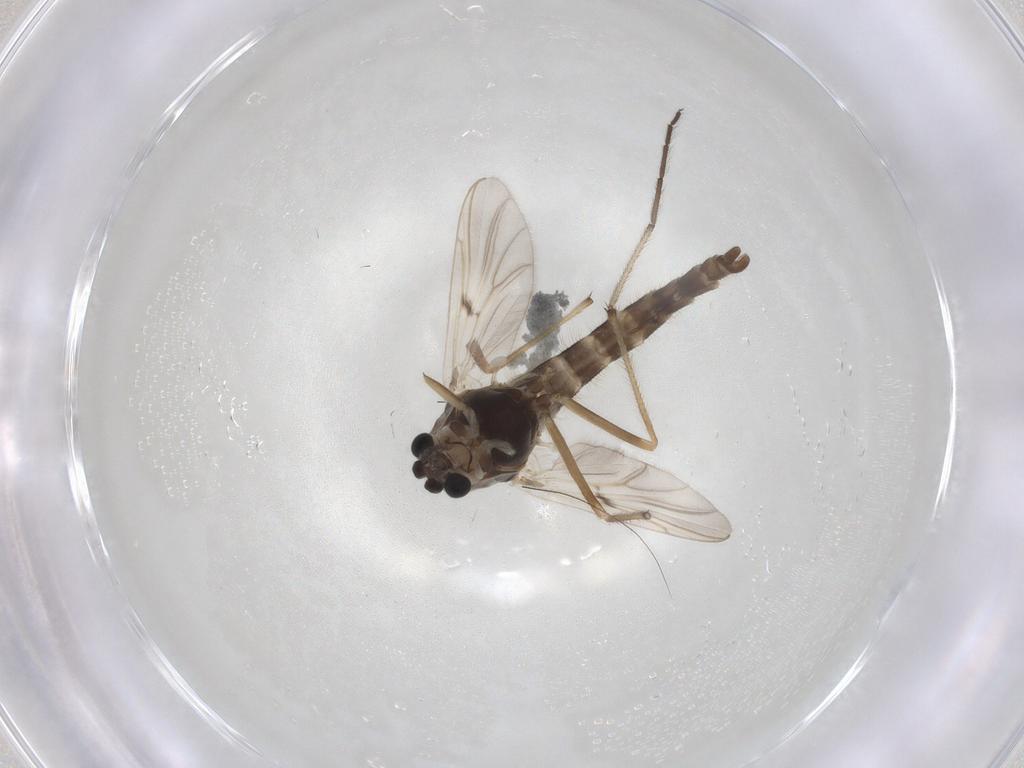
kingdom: Animalia
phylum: Arthropoda
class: Insecta
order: Diptera
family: Chironomidae
